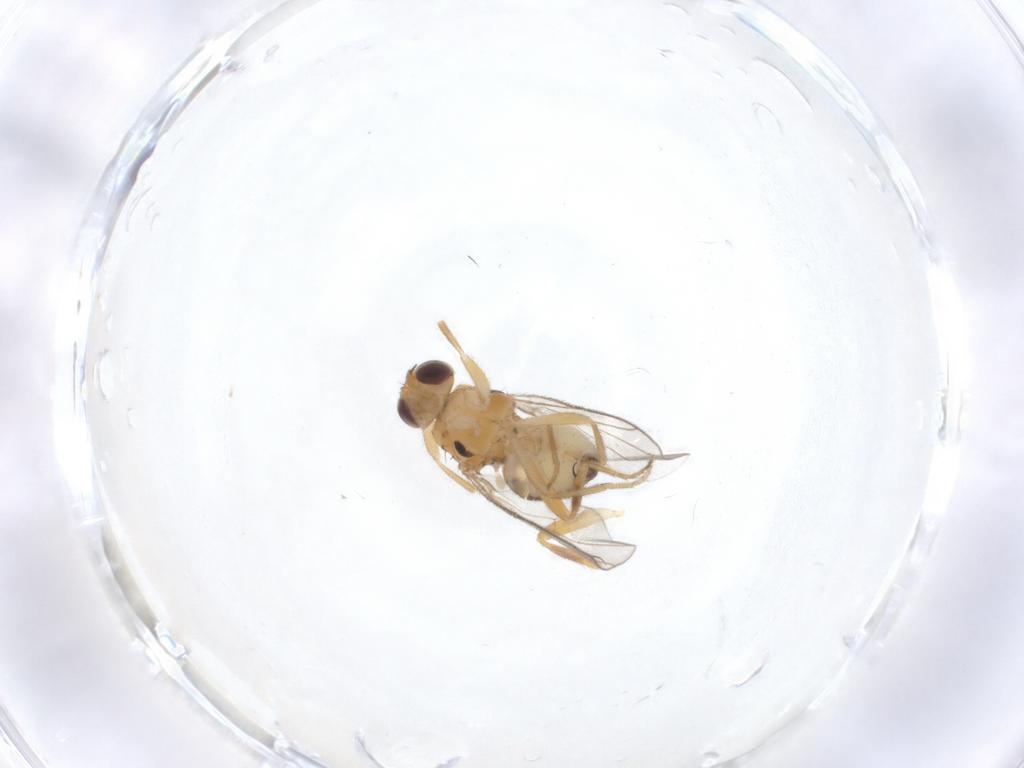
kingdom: Animalia
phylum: Arthropoda
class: Insecta
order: Diptera
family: Chloropidae
